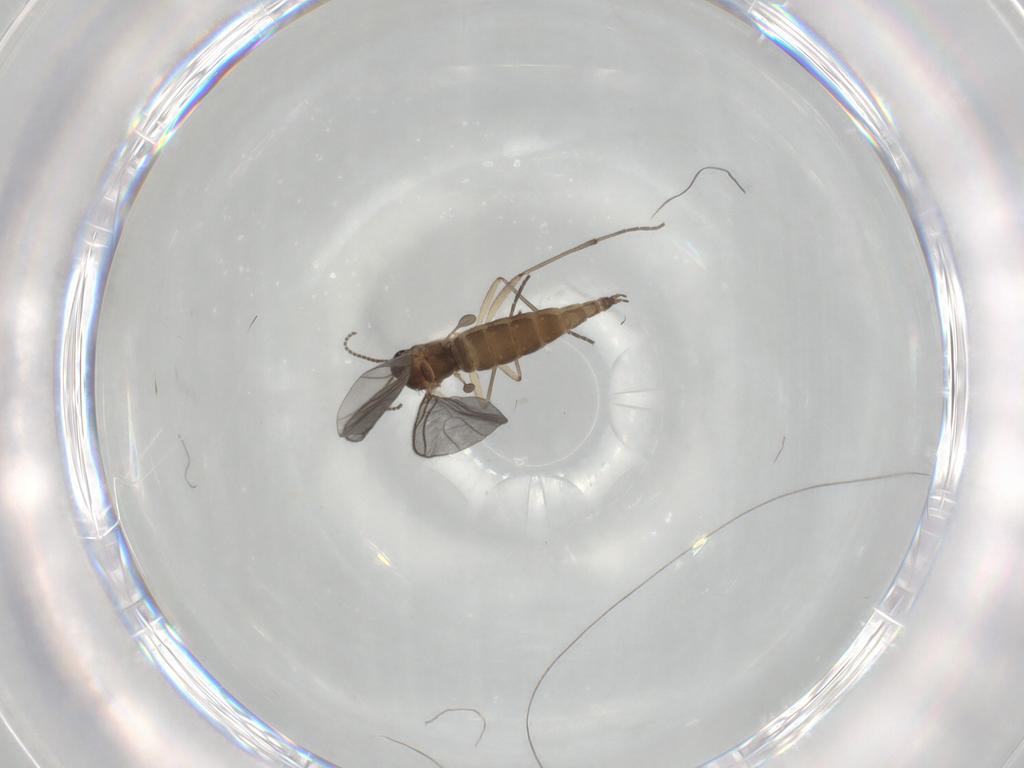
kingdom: Animalia
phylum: Arthropoda
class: Insecta
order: Diptera
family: Sciaridae
